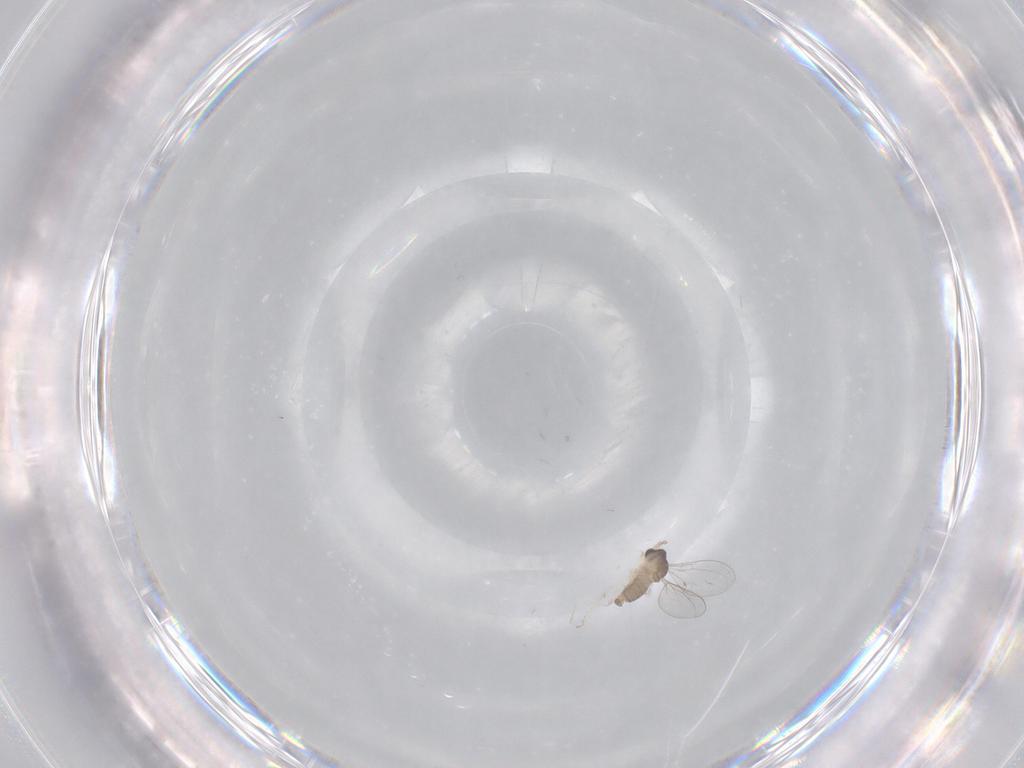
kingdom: Animalia
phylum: Arthropoda
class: Insecta
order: Diptera
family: Cecidomyiidae
